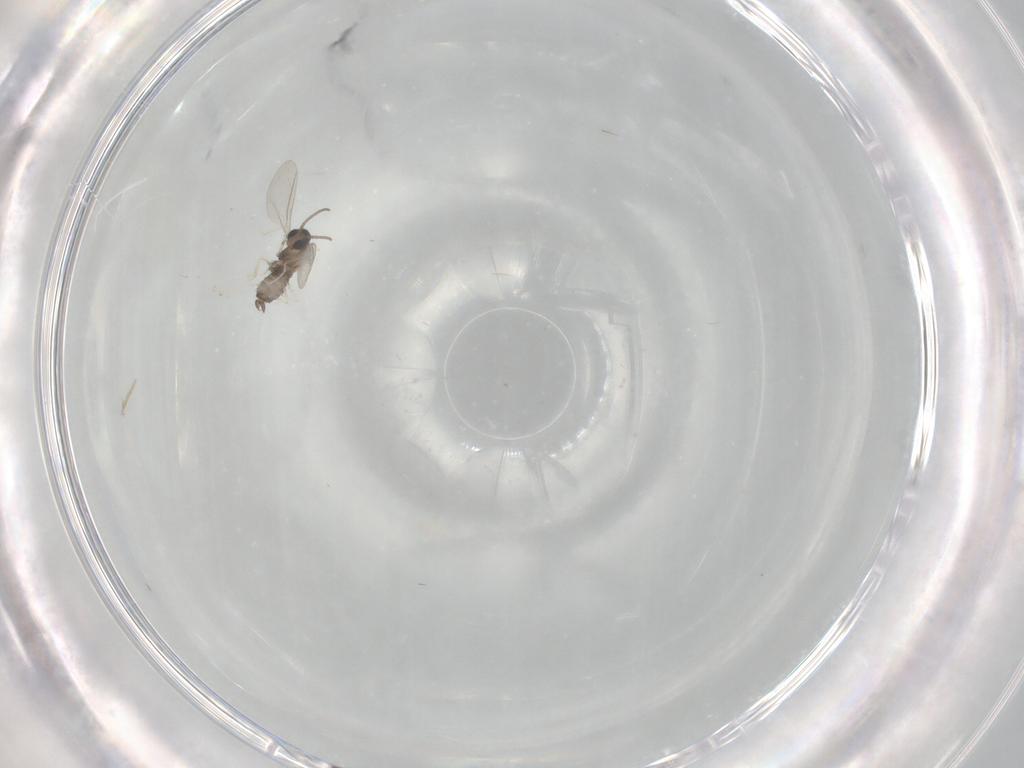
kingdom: Animalia
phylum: Arthropoda
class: Insecta
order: Diptera
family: Cecidomyiidae
